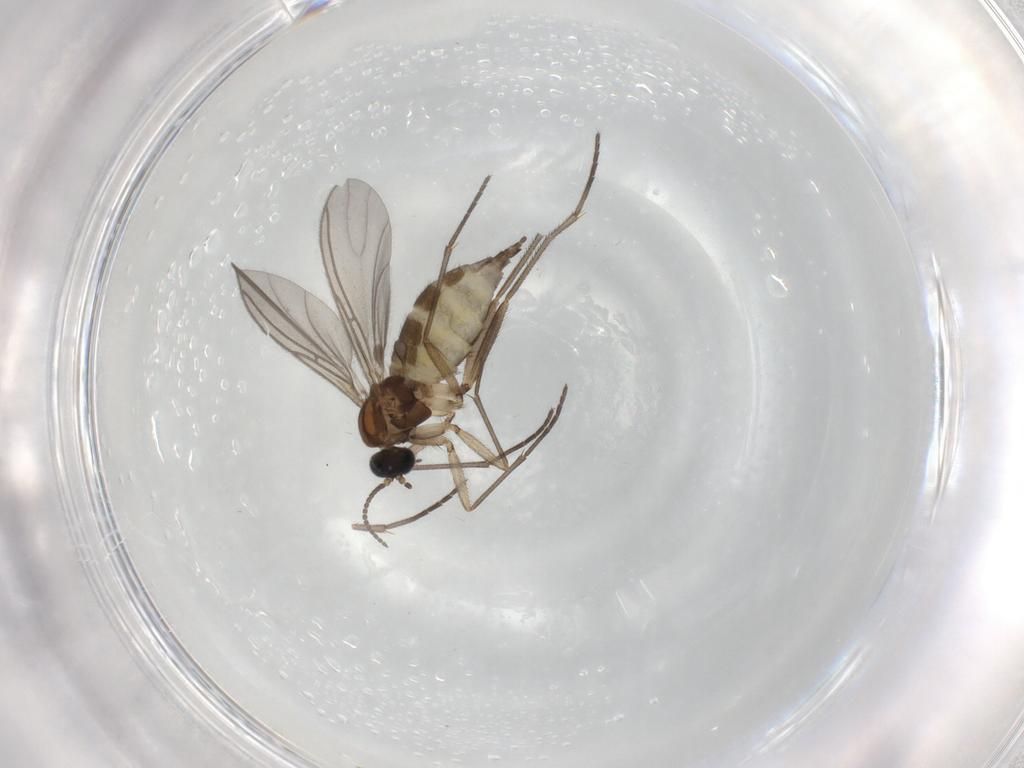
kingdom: Animalia
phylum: Arthropoda
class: Insecta
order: Diptera
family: Sciaridae
